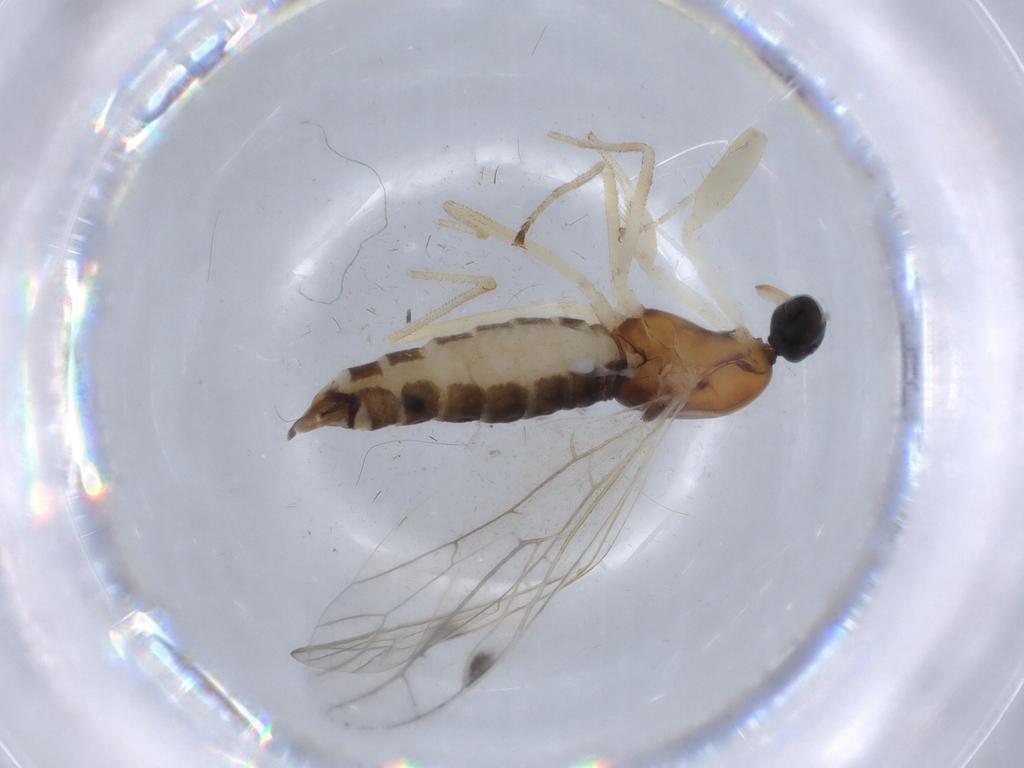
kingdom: Animalia
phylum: Arthropoda
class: Insecta
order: Diptera
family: Empididae
